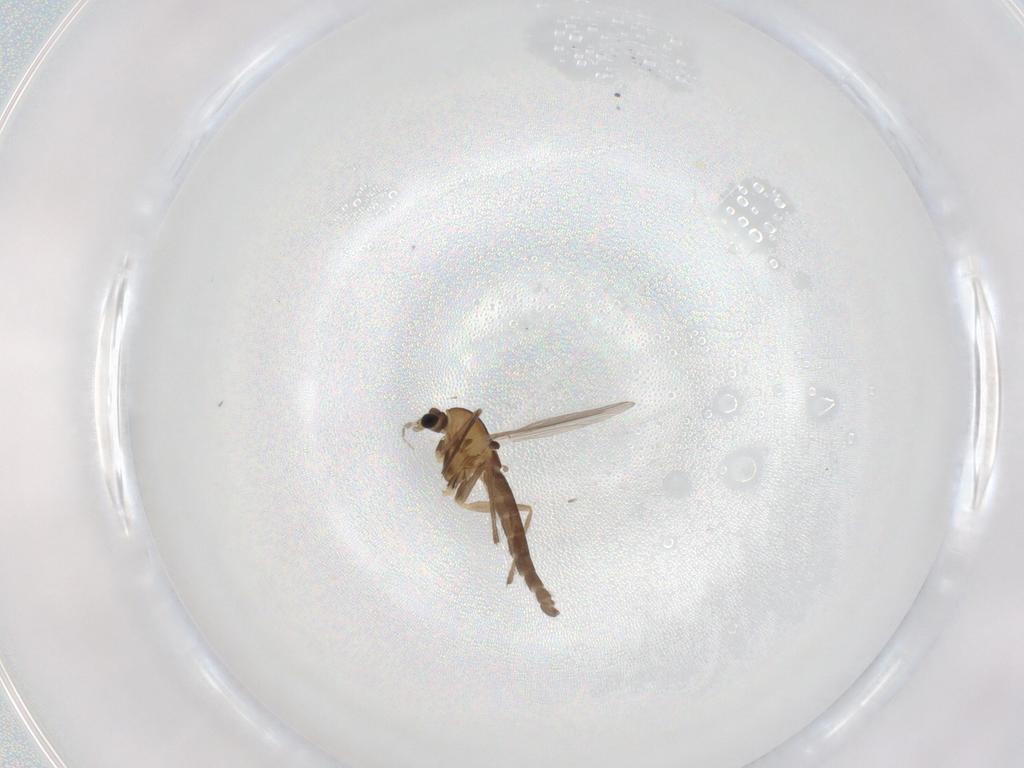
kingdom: Animalia
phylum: Arthropoda
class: Insecta
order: Diptera
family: Chironomidae
